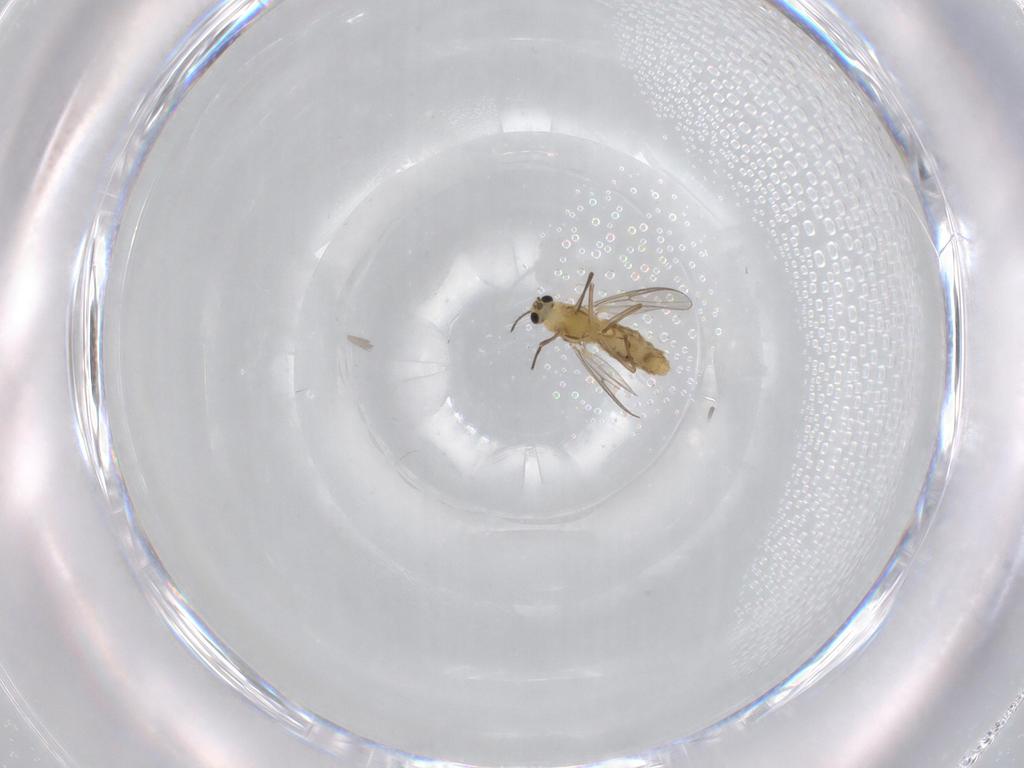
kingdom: Animalia
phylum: Arthropoda
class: Insecta
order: Diptera
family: Chironomidae
